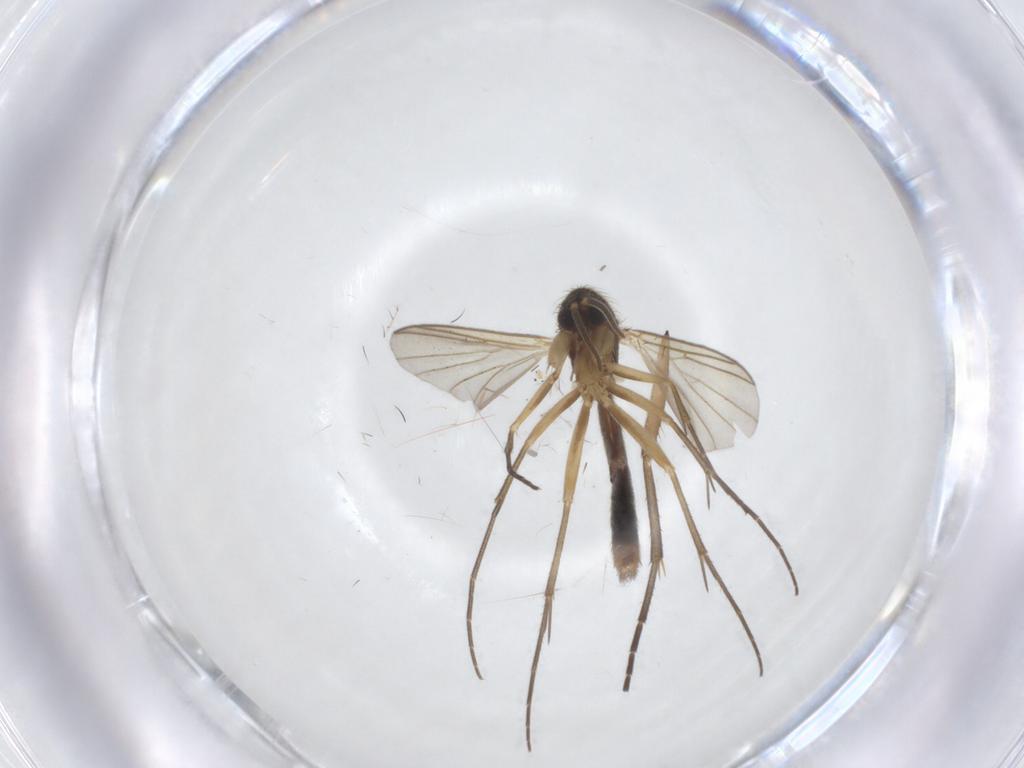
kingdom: Animalia
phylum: Arthropoda
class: Insecta
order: Diptera
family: Mycetophilidae
